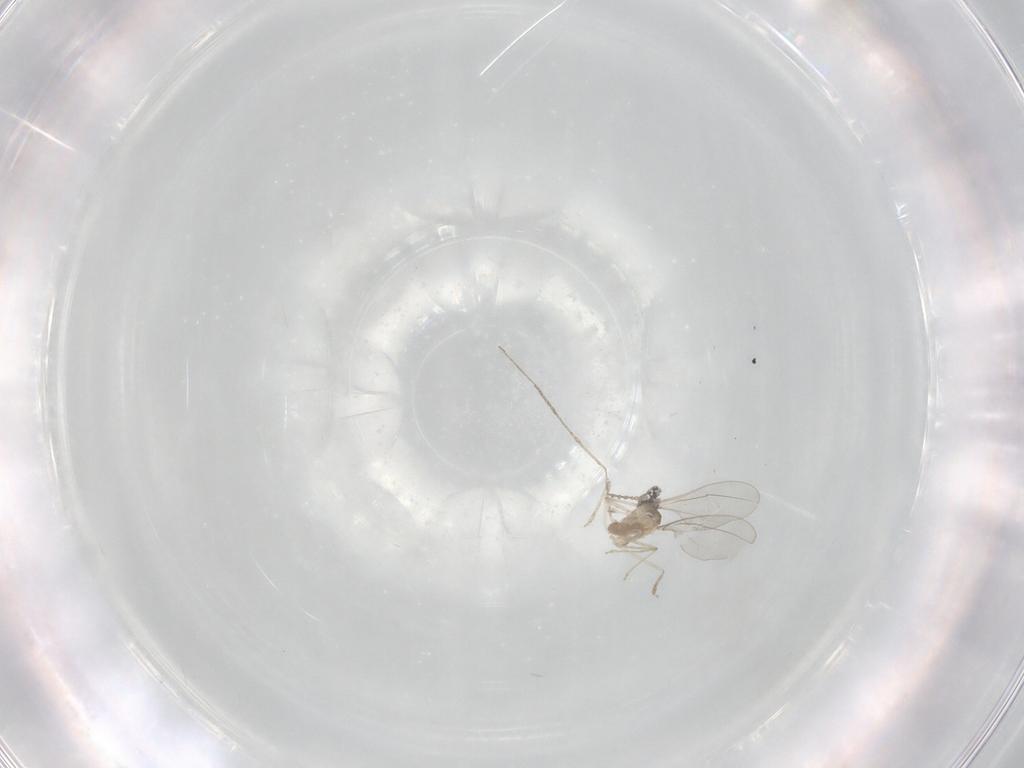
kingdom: Animalia
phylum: Arthropoda
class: Insecta
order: Diptera
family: Cecidomyiidae
